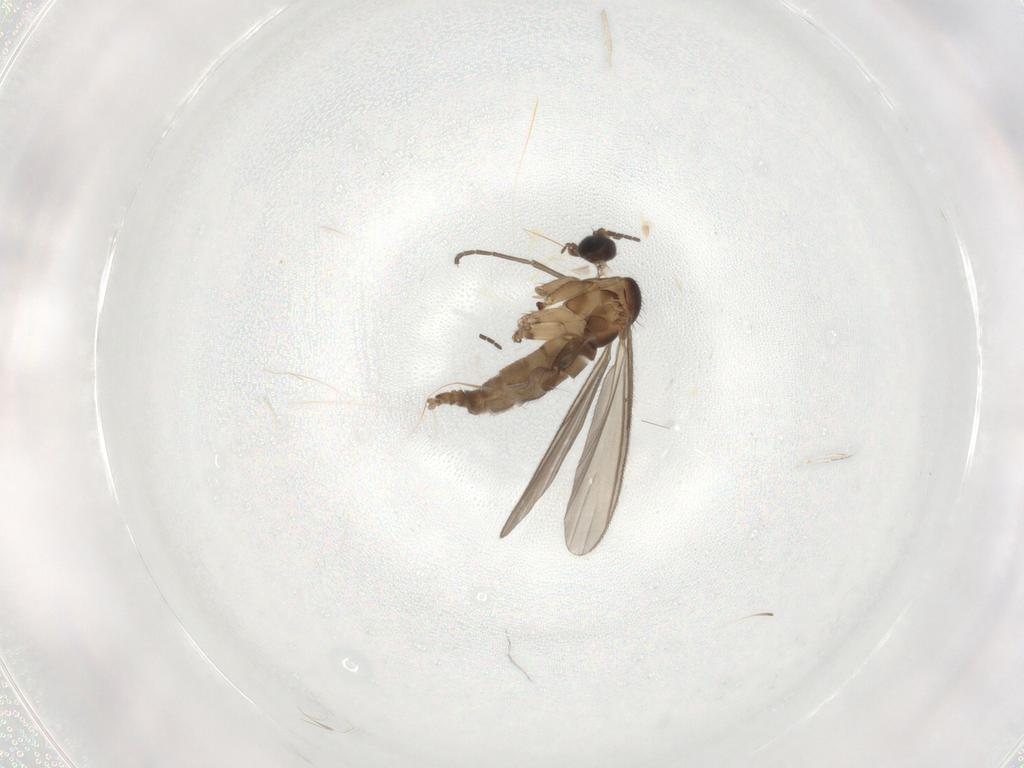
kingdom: Animalia
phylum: Arthropoda
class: Insecta
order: Diptera
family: Sciaridae
